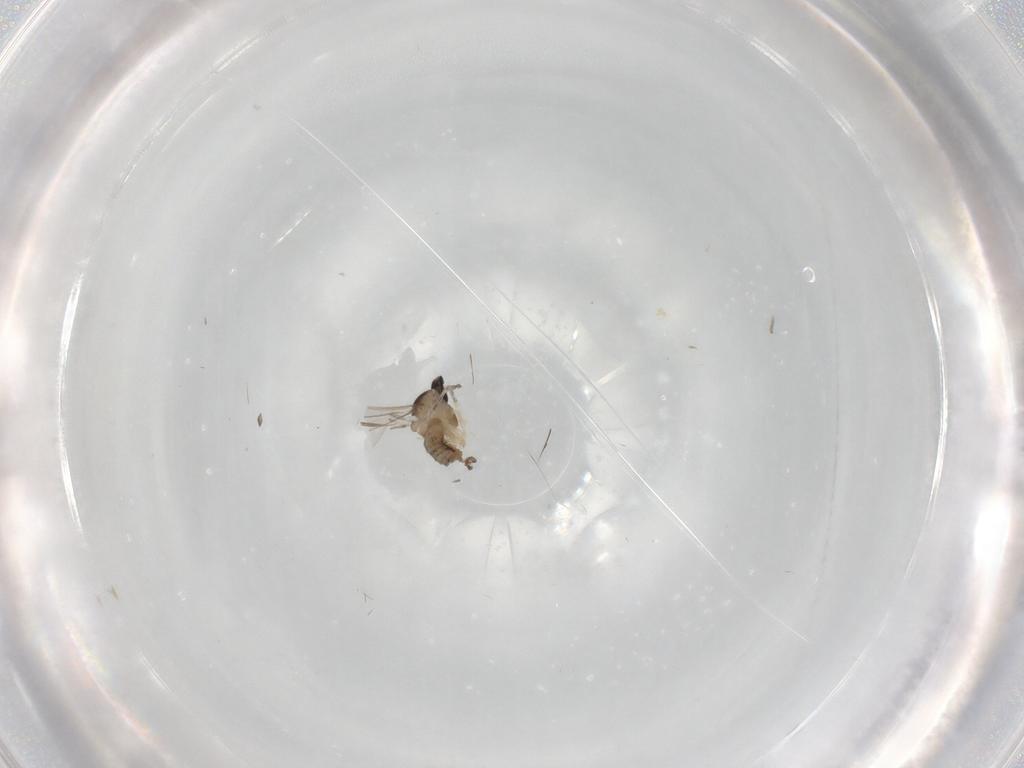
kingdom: Animalia
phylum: Arthropoda
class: Insecta
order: Diptera
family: Cecidomyiidae
